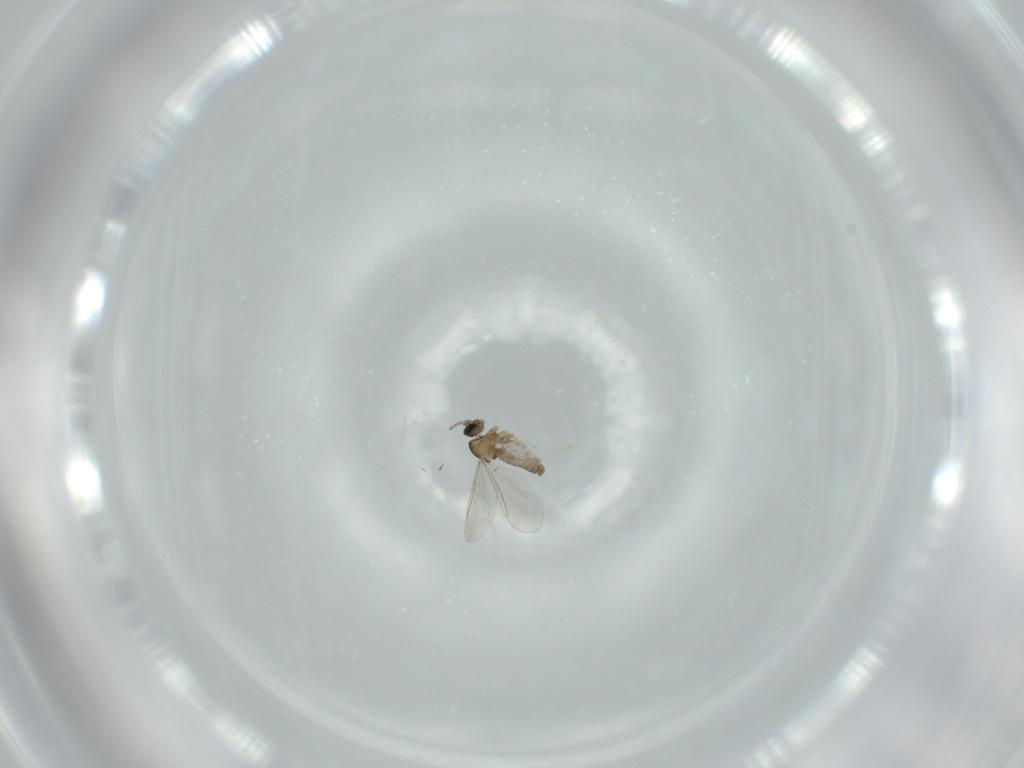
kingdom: Animalia
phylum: Arthropoda
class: Insecta
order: Diptera
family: Cecidomyiidae
